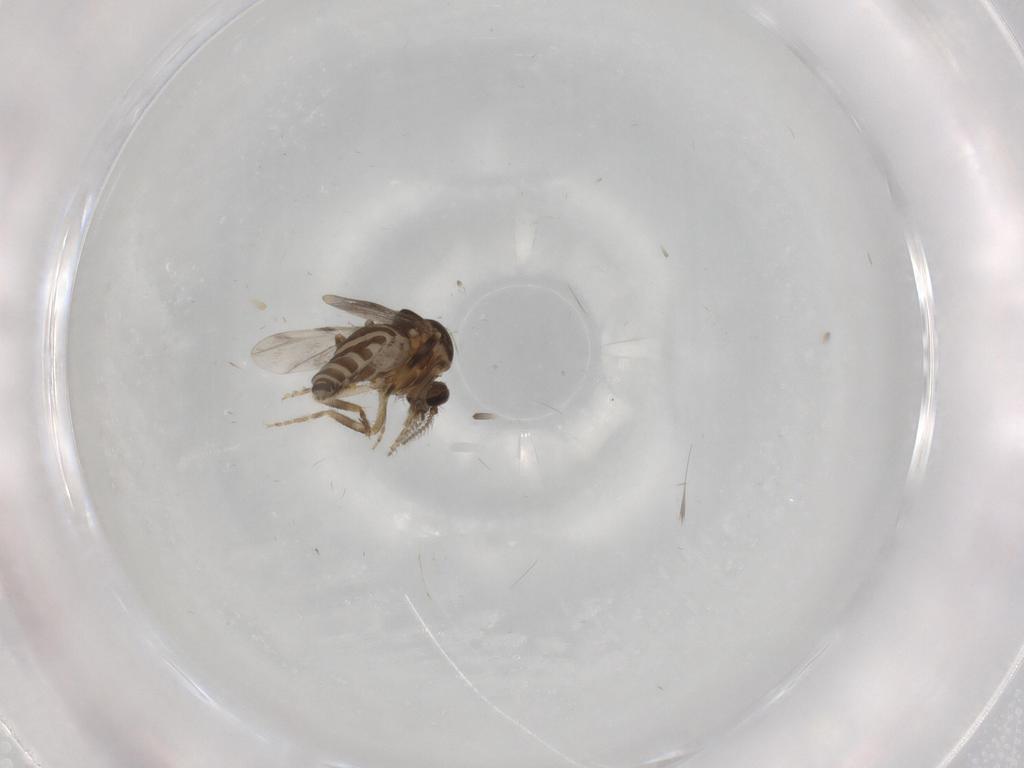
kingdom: Animalia
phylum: Arthropoda
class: Insecta
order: Diptera
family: Ceratopogonidae
